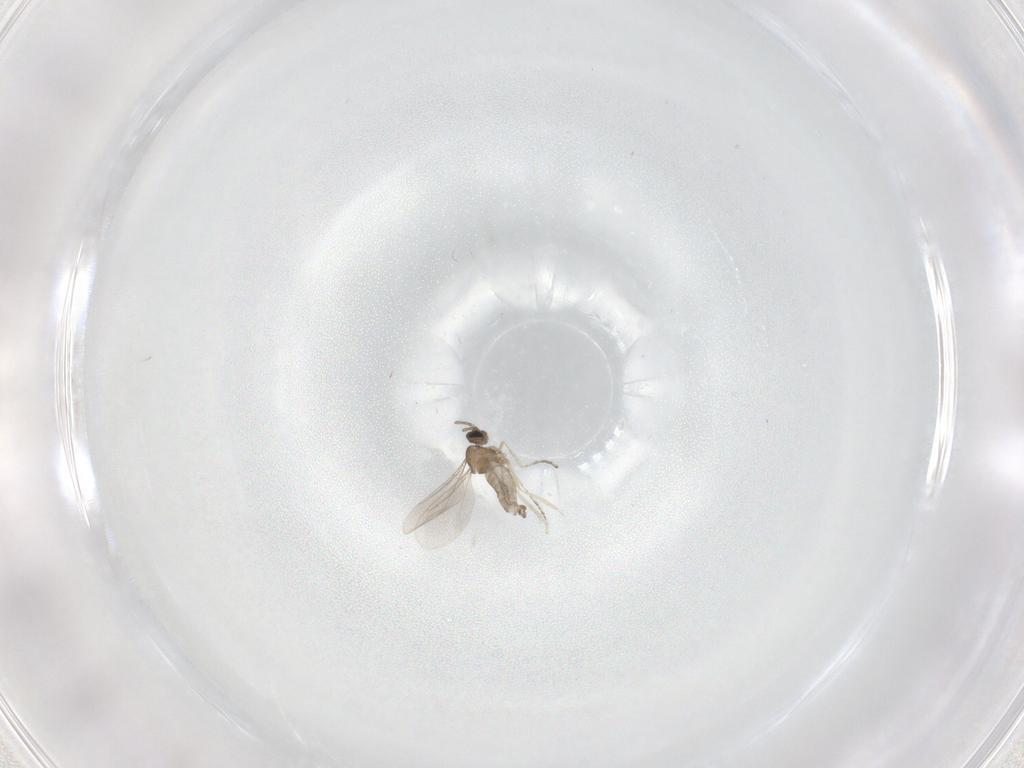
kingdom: Animalia
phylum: Arthropoda
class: Insecta
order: Diptera
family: Cecidomyiidae
